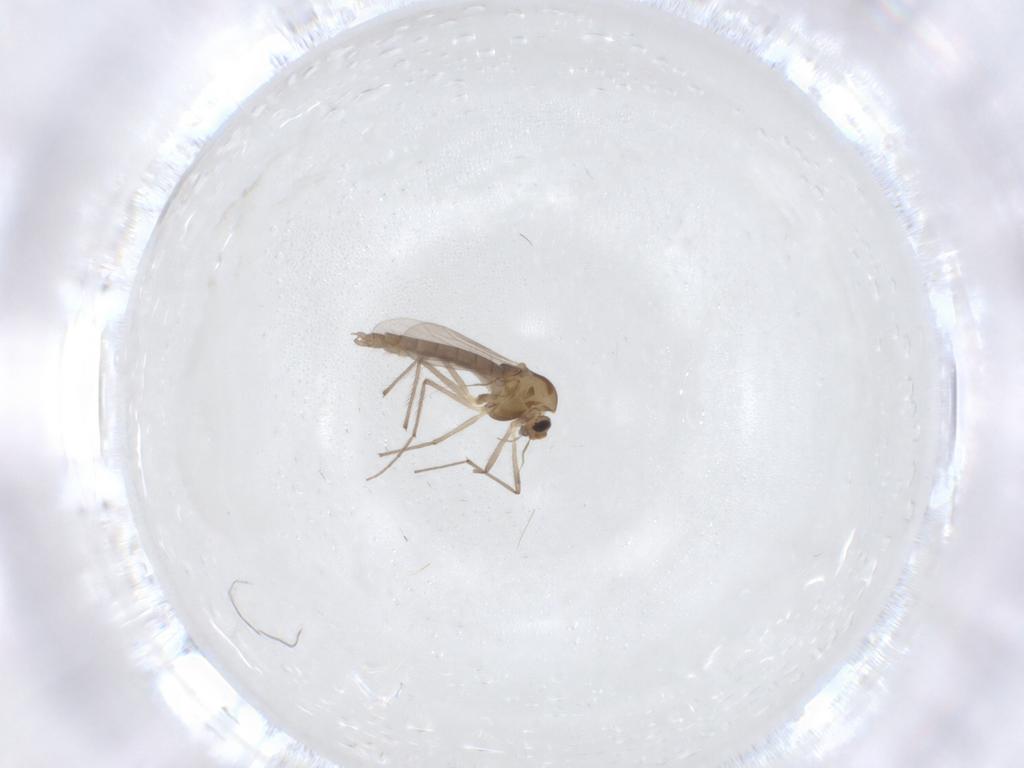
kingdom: Animalia
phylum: Arthropoda
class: Insecta
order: Diptera
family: Chironomidae
